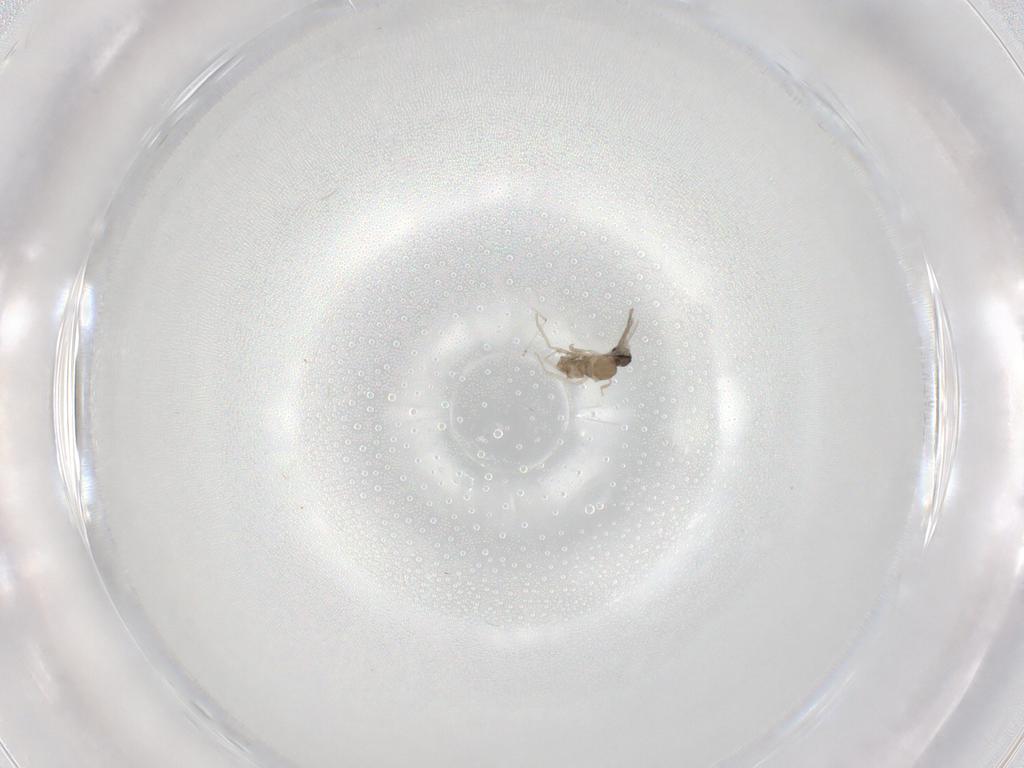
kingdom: Animalia
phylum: Arthropoda
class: Insecta
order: Diptera
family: Cecidomyiidae
